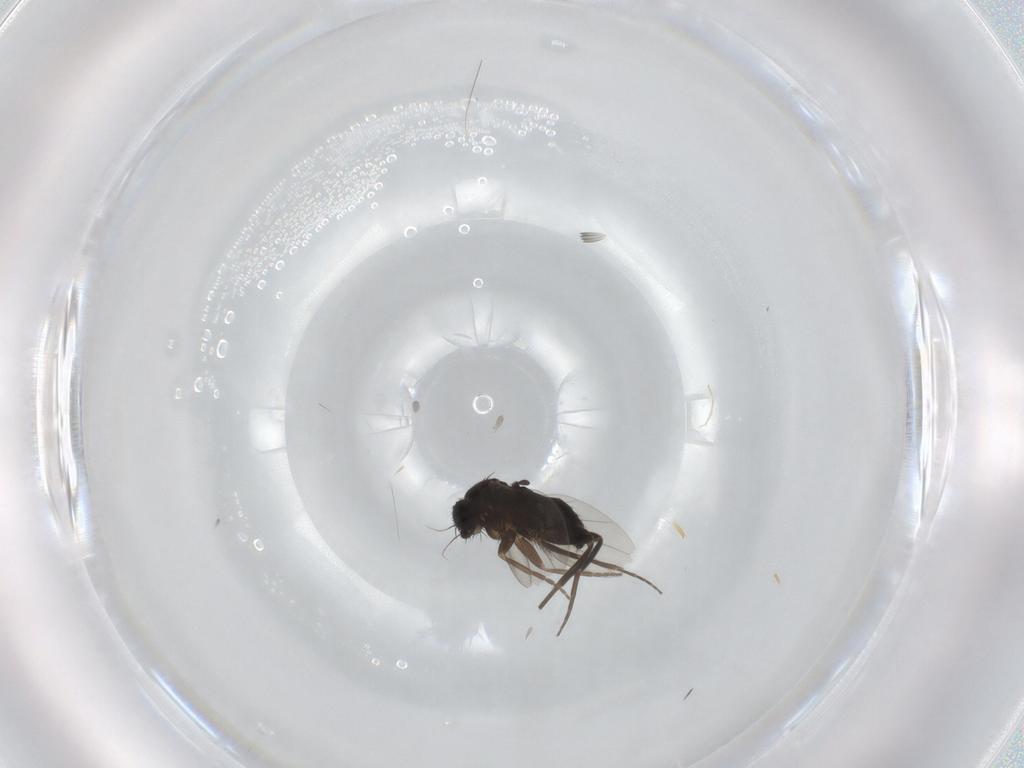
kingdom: Animalia
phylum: Arthropoda
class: Insecta
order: Diptera
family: Phoridae
